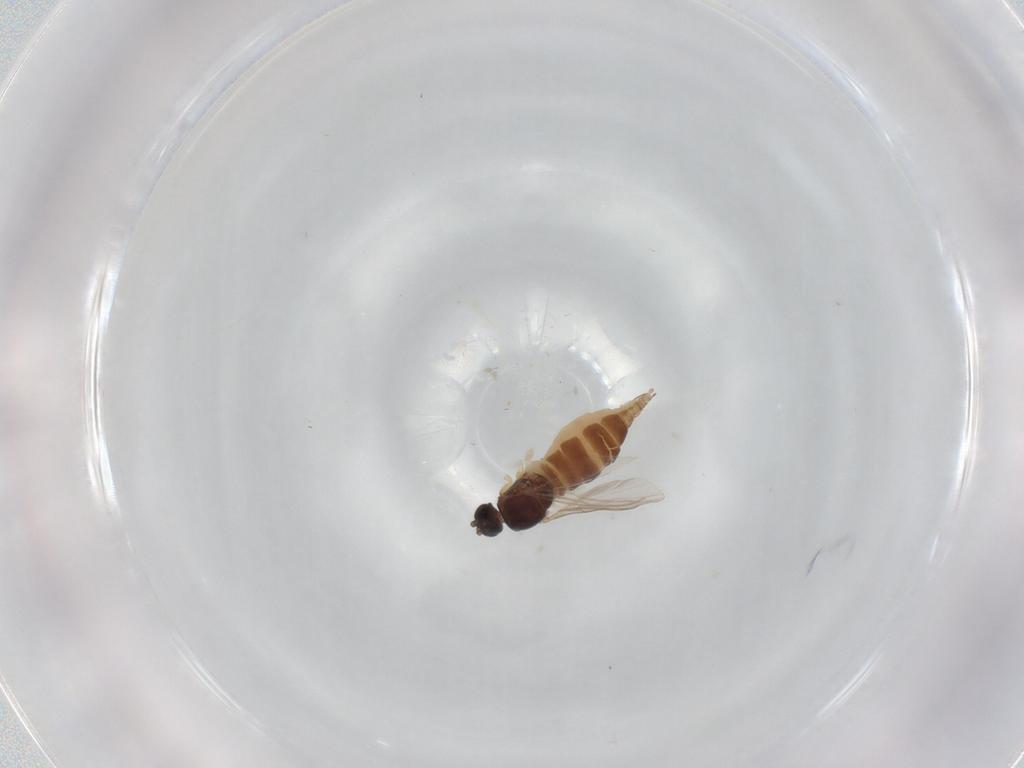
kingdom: Animalia
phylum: Arthropoda
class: Insecta
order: Diptera
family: Sciaridae
